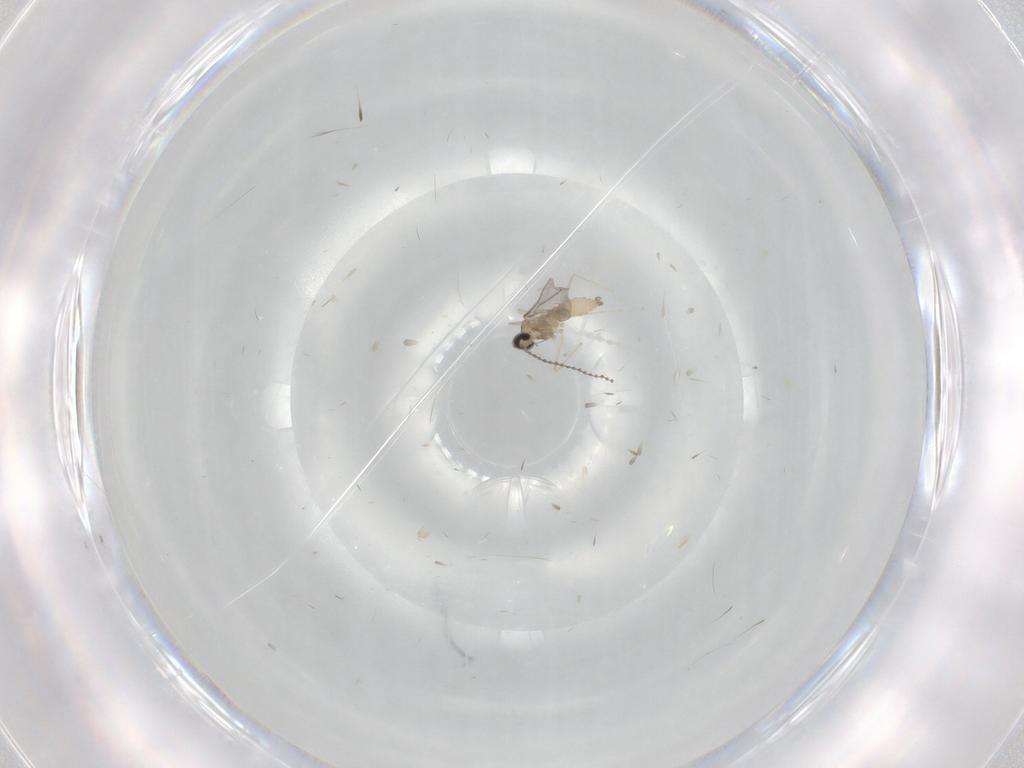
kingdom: Animalia
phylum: Arthropoda
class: Insecta
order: Diptera
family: Cecidomyiidae
